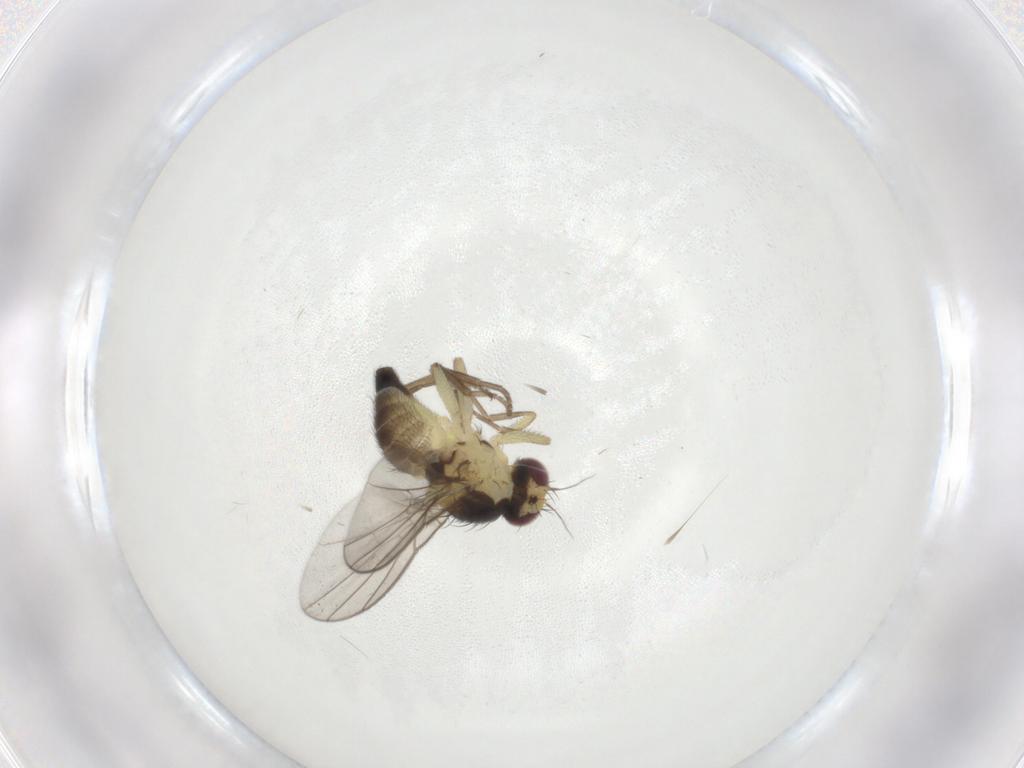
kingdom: Animalia
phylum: Arthropoda
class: Insecta
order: Diptera
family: Agromyzidae
